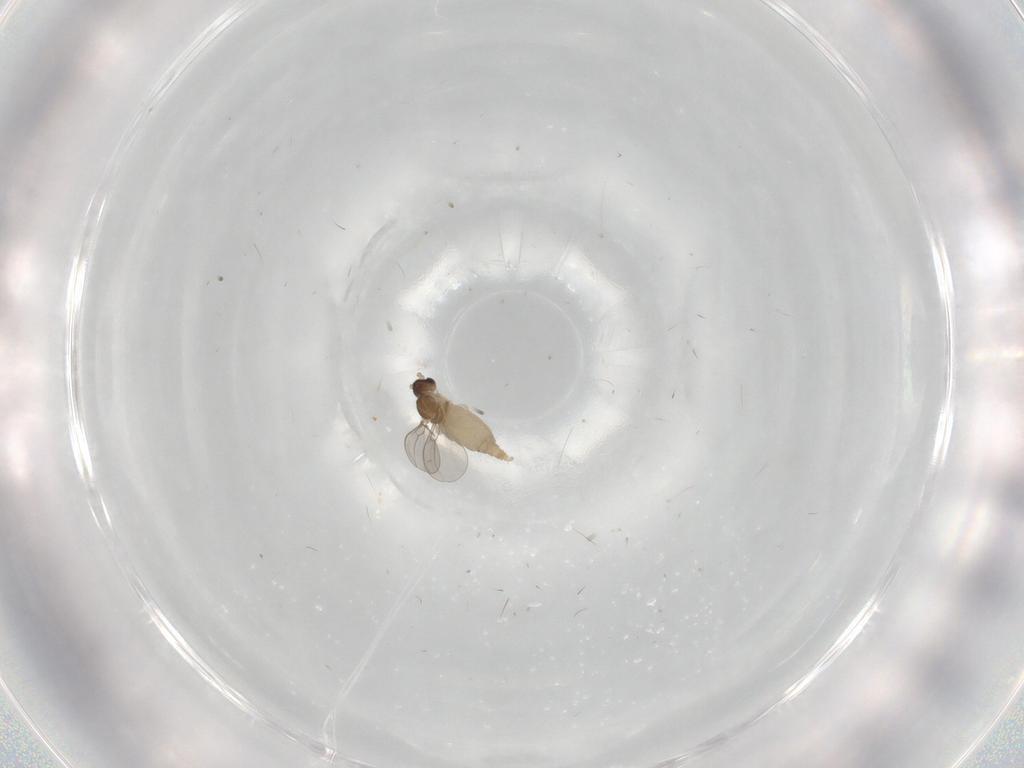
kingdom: Animalia
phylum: Arthropoda
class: Insecta
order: Diptera
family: Cecidomyiidae
